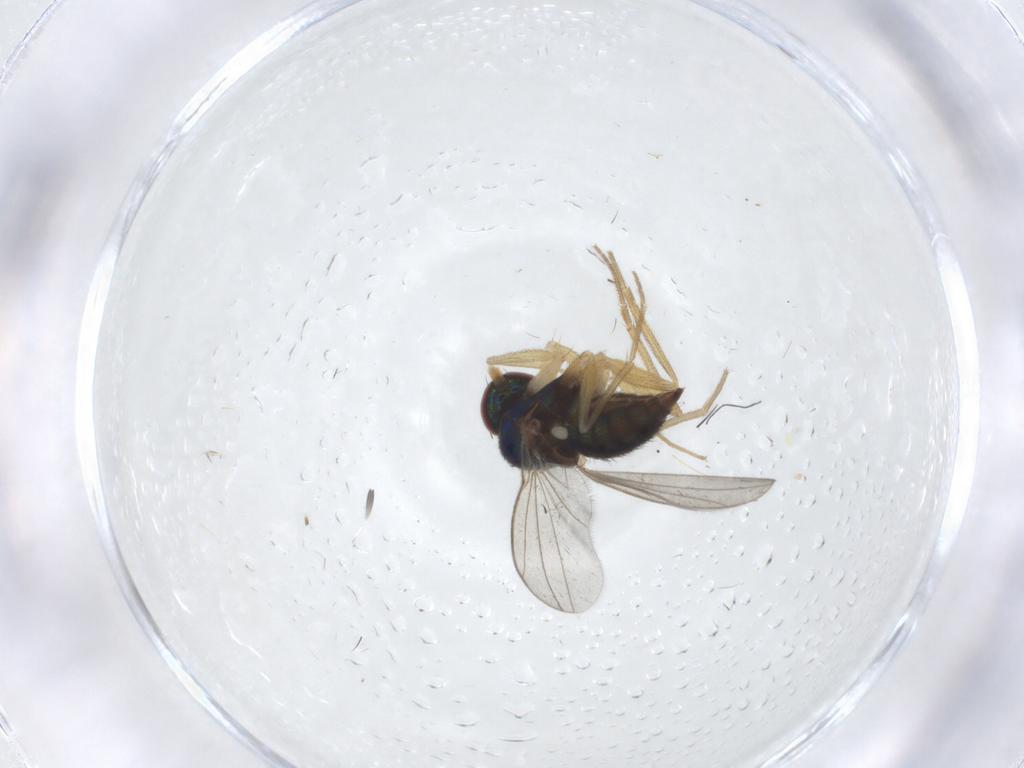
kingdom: Animalia
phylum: Arthropoda
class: Insecta
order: Diptera
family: Dolichopodidae
